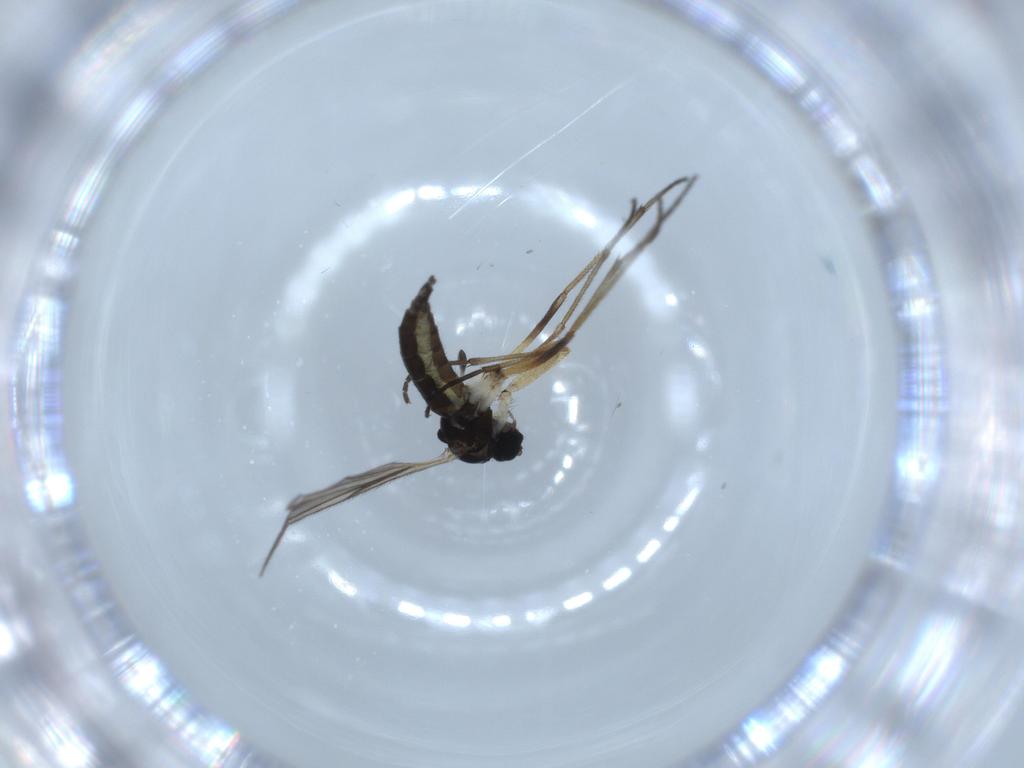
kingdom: Animalia
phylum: Arthropoda
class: Insecta
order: Diptera
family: Sciaridae
